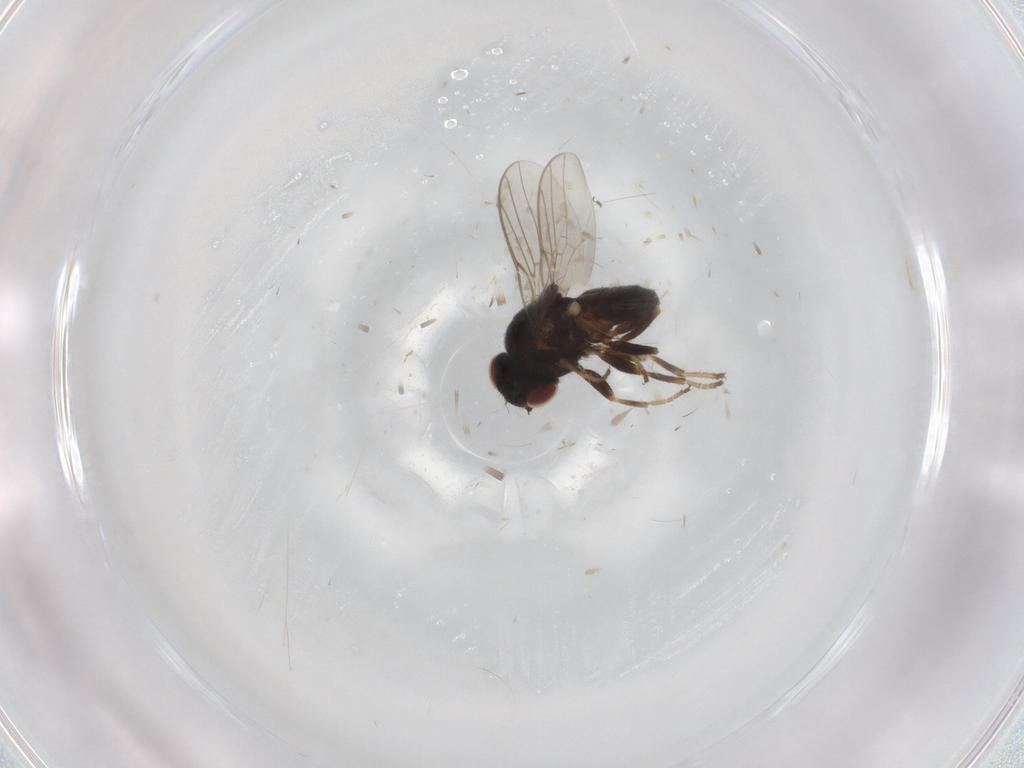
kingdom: Animalia
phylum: Arthropoda
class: Insecta
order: Diptera
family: Chloropidae
